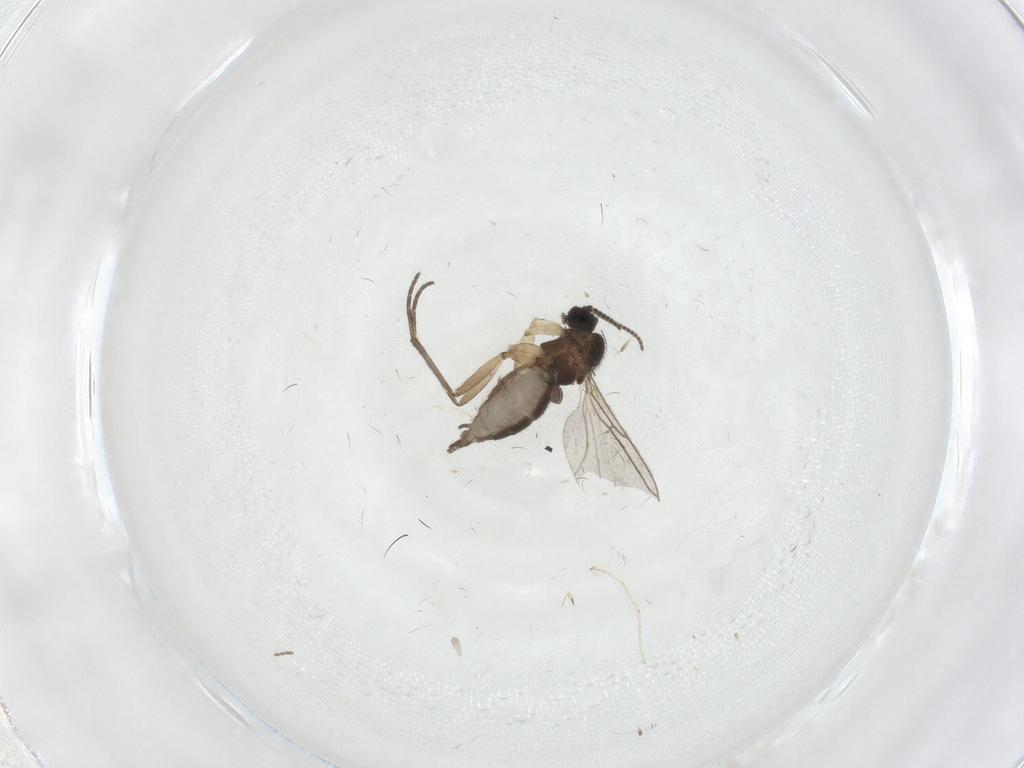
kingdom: Animalia
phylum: Arthropoda
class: Insecta
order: Diptera
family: Sciaridae
